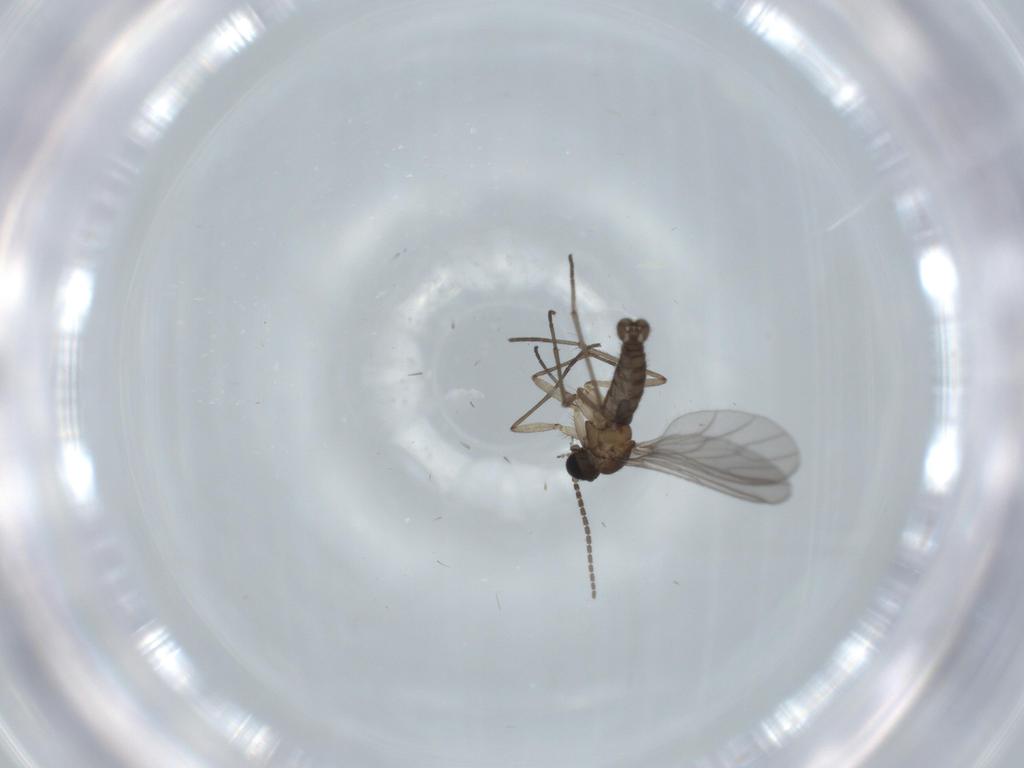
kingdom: Animalia
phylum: Arthropoda
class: Insecta
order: Diptera
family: Sciaridae
